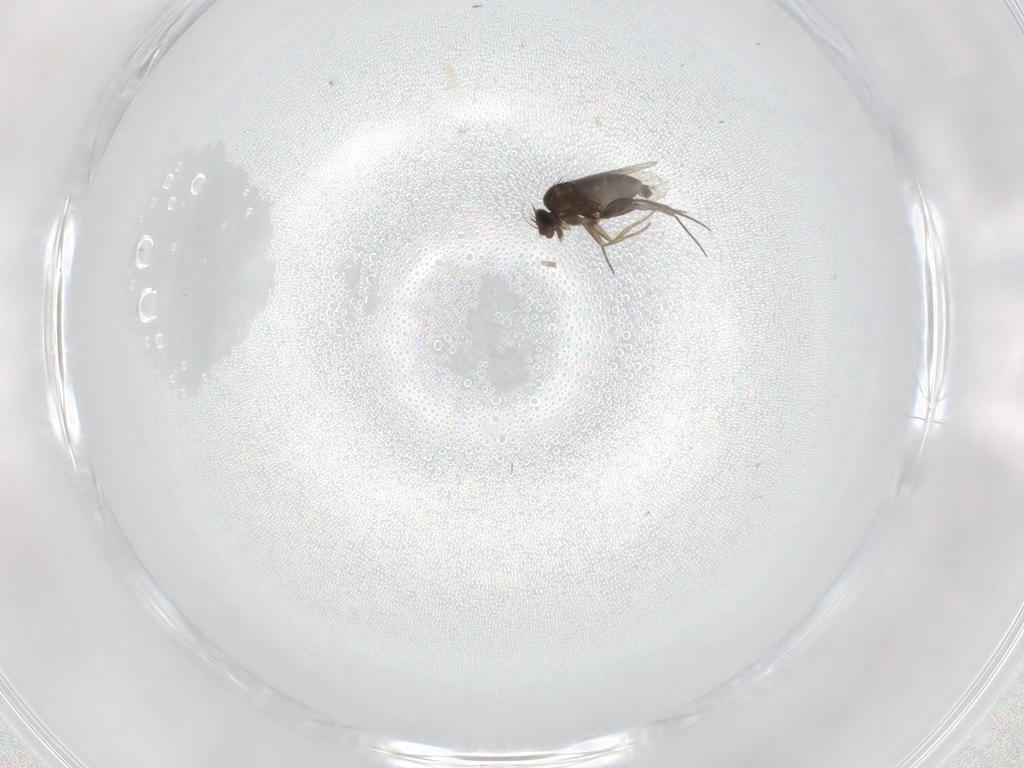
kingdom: Animalia
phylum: Arthropoda
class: Insecta
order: Diptera
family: Phoridae
